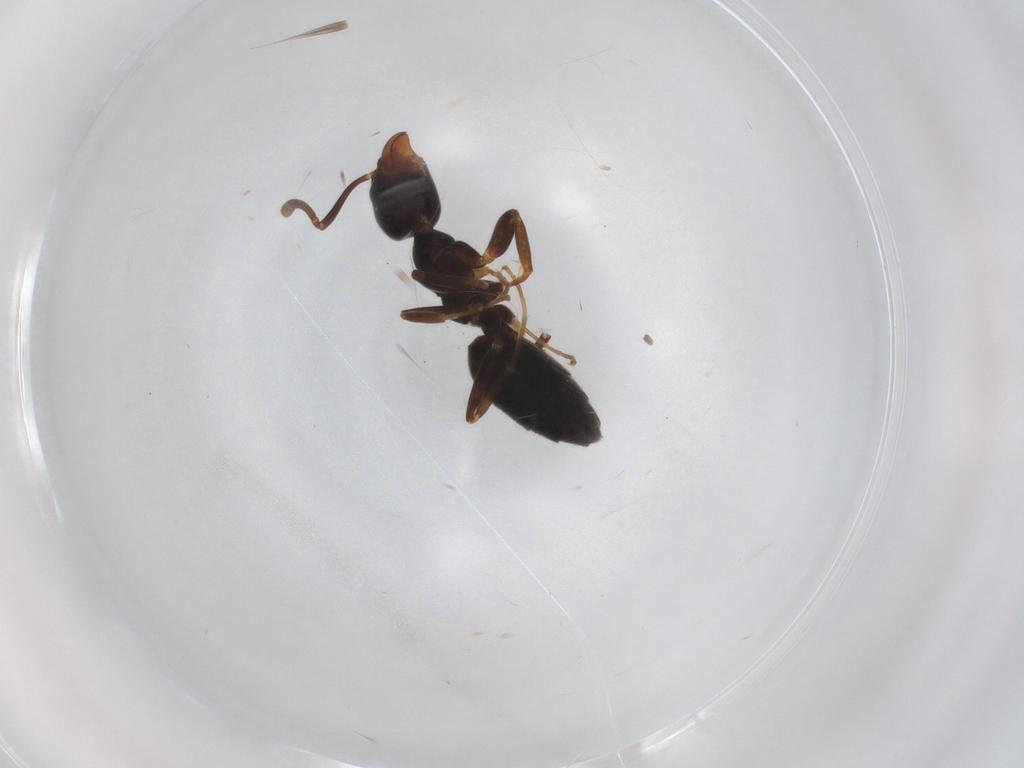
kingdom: Animalia
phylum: Arthropoda
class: Insecta
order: Hymenoptera
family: Formicidae
